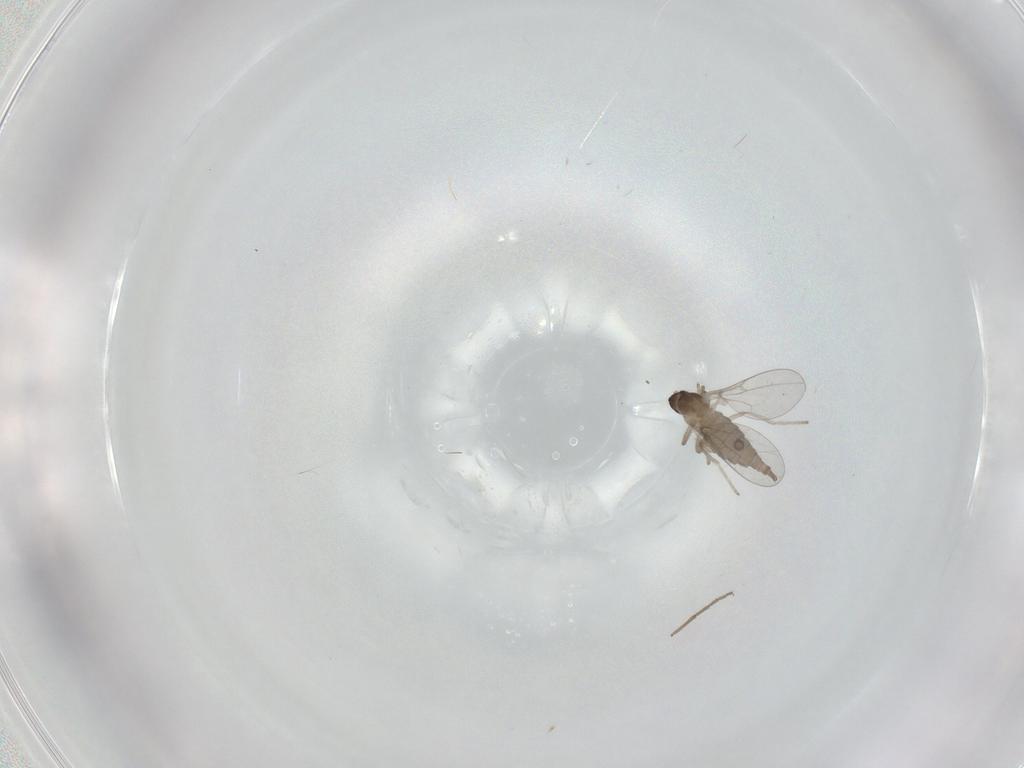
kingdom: Animalia
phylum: Arthropoda
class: Insecta
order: Diptera
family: Cecidomyiidae
